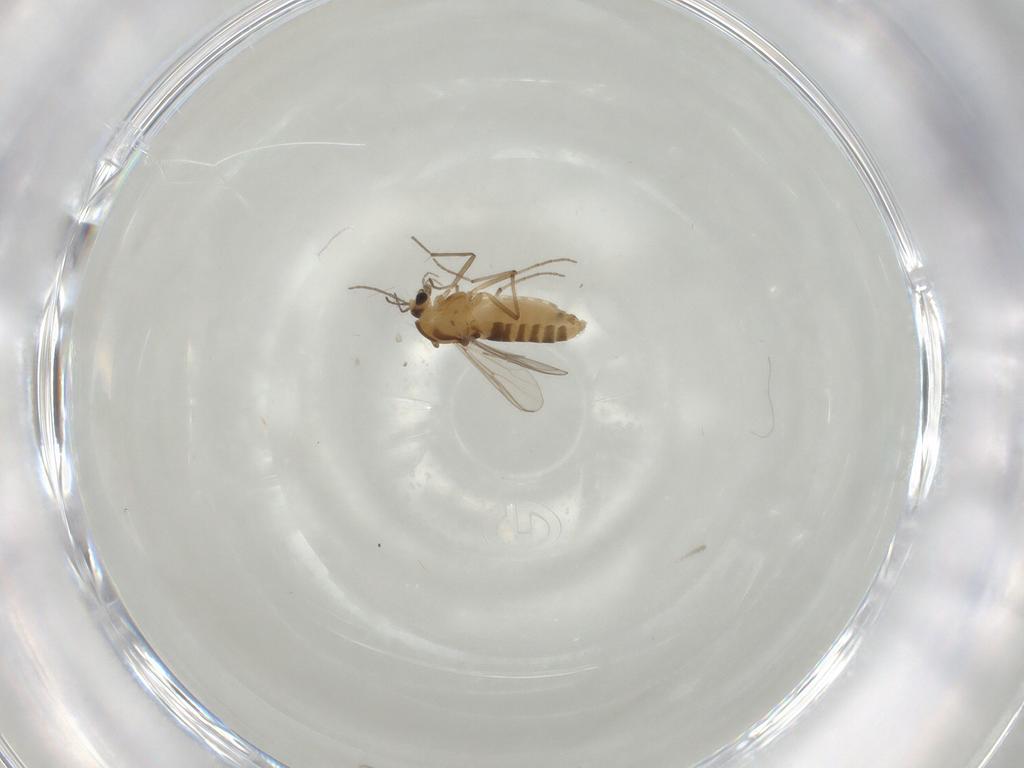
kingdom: Animalia
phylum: Arthropoda
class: Insecta
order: Diptera
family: Chironomidae
